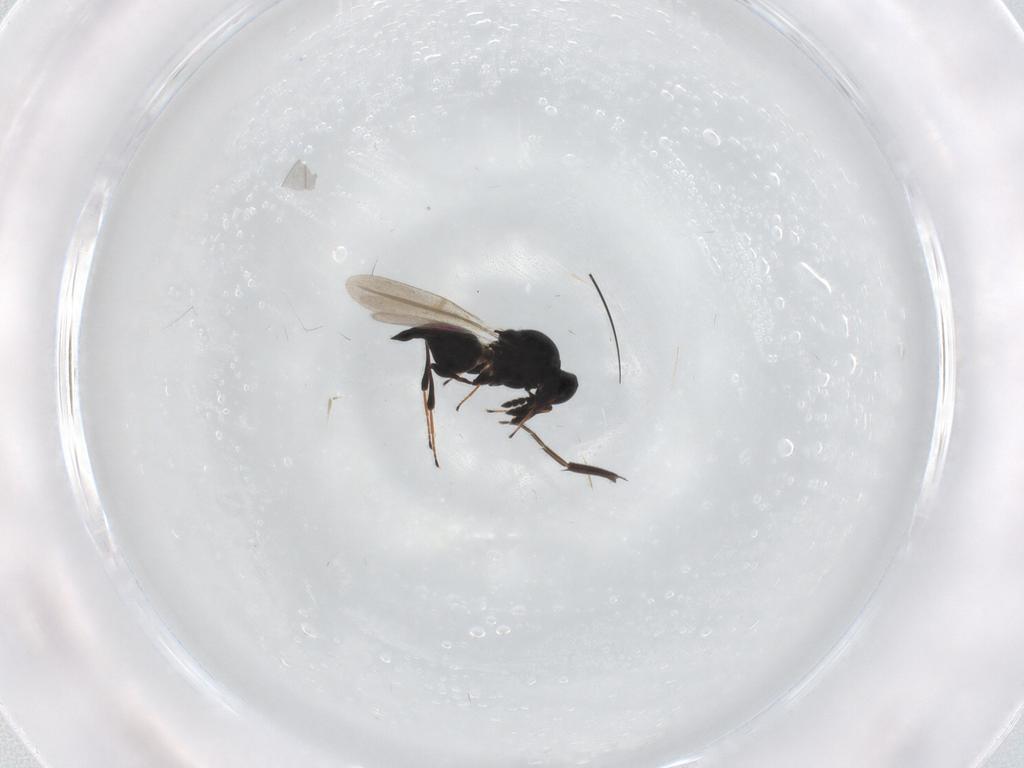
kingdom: Animalia
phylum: Arthropoda
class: Insecta
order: Hymenoptera
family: Platygastridae
